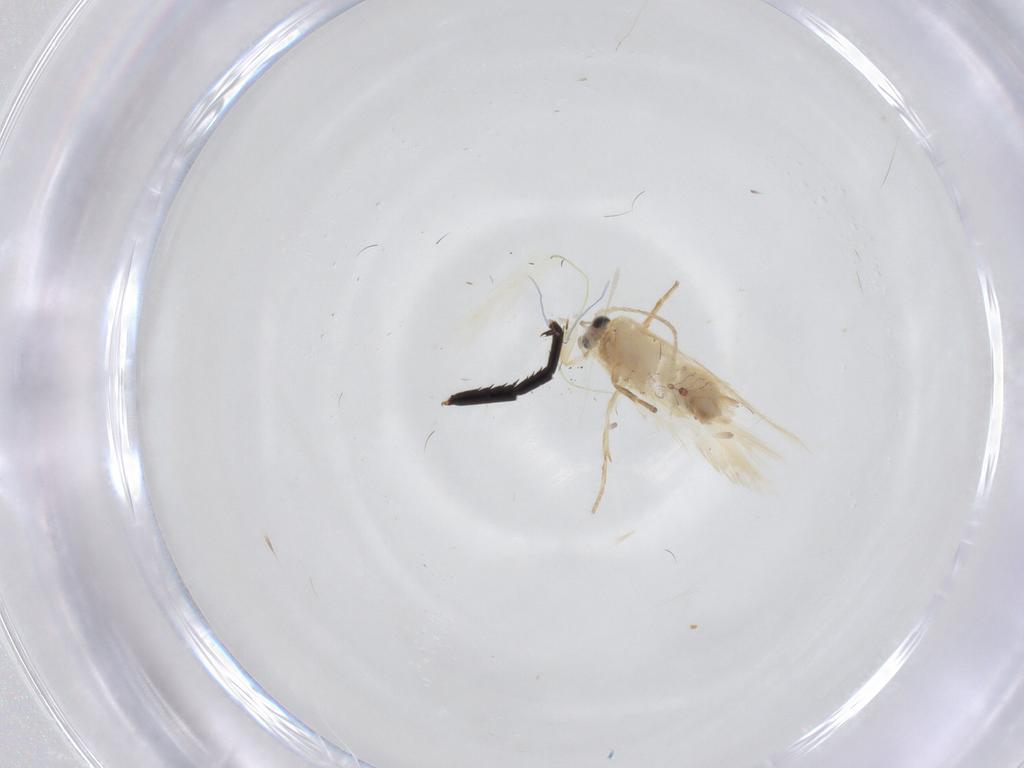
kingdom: Animalia
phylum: Arthropoda
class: Insecta
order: Lepidoptera
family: Nepticulidae
